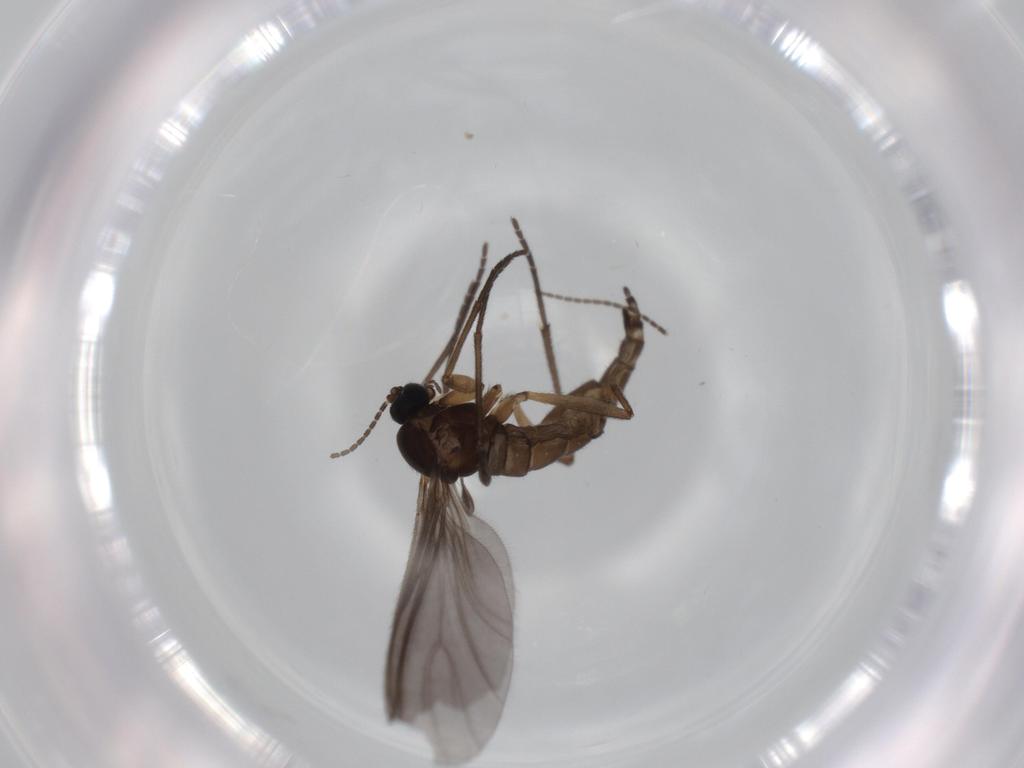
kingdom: Animalia
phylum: Arthropoda
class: Insecta
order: Diptera
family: Sciaridae
